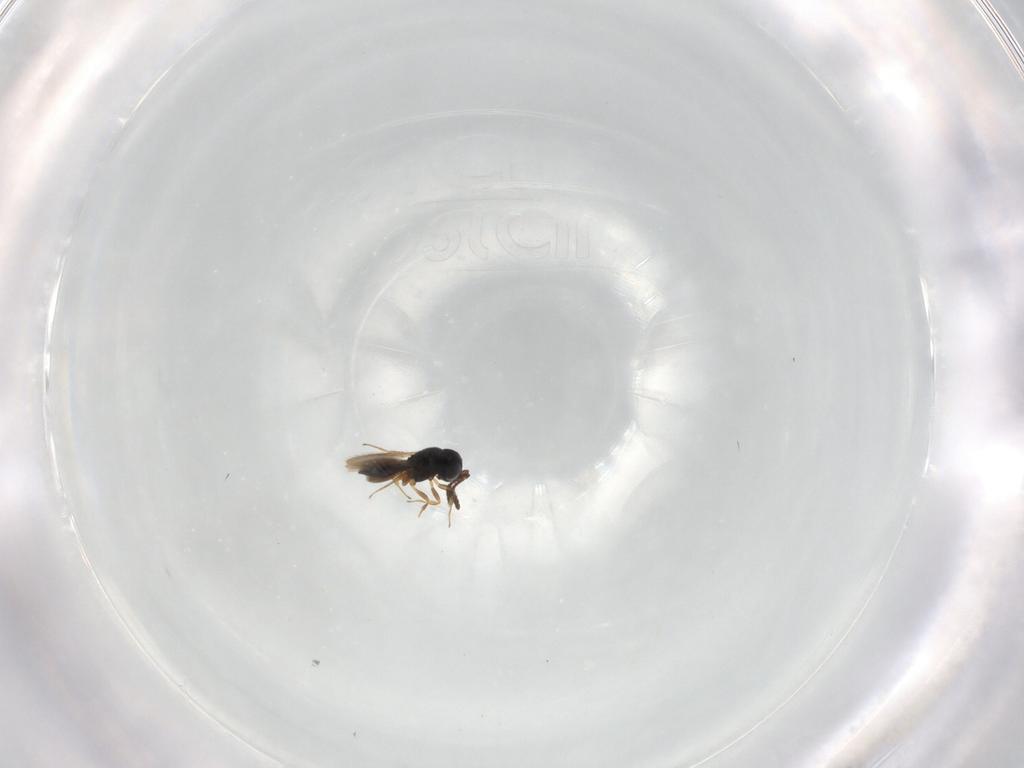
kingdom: Animalia
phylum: Arthropoda
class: Insecta
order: Hymenoptera
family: Scelionidae
